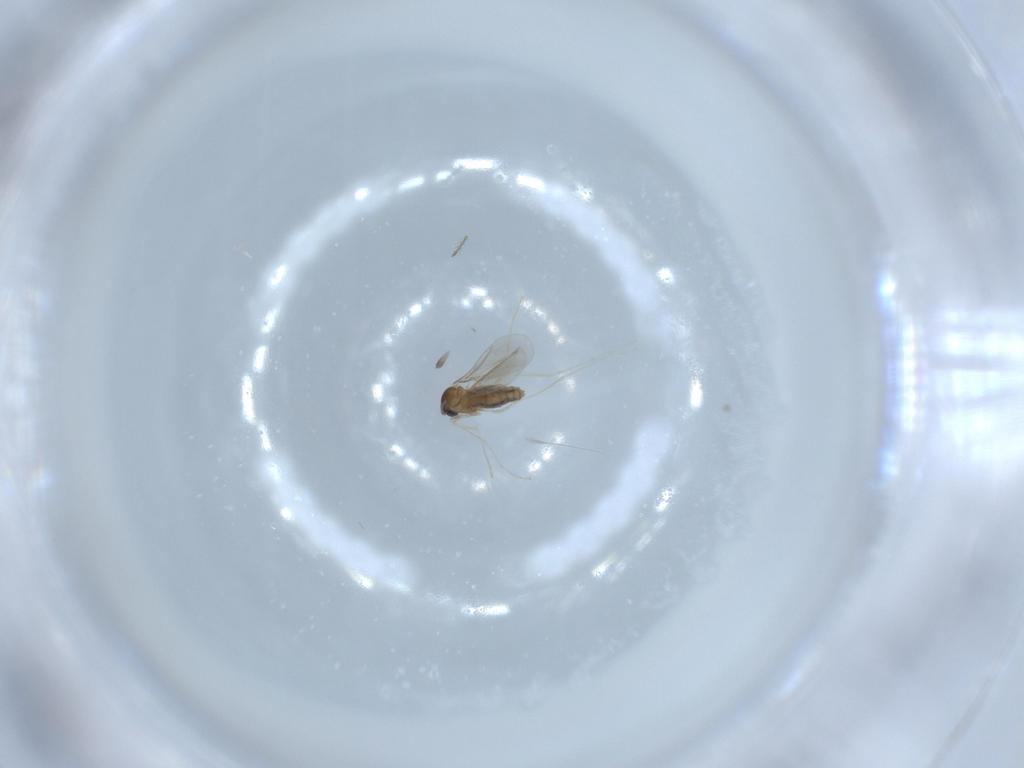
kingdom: Animalia
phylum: Arthropoda
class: Insecta
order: Diptera
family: Cecidomyiidae
